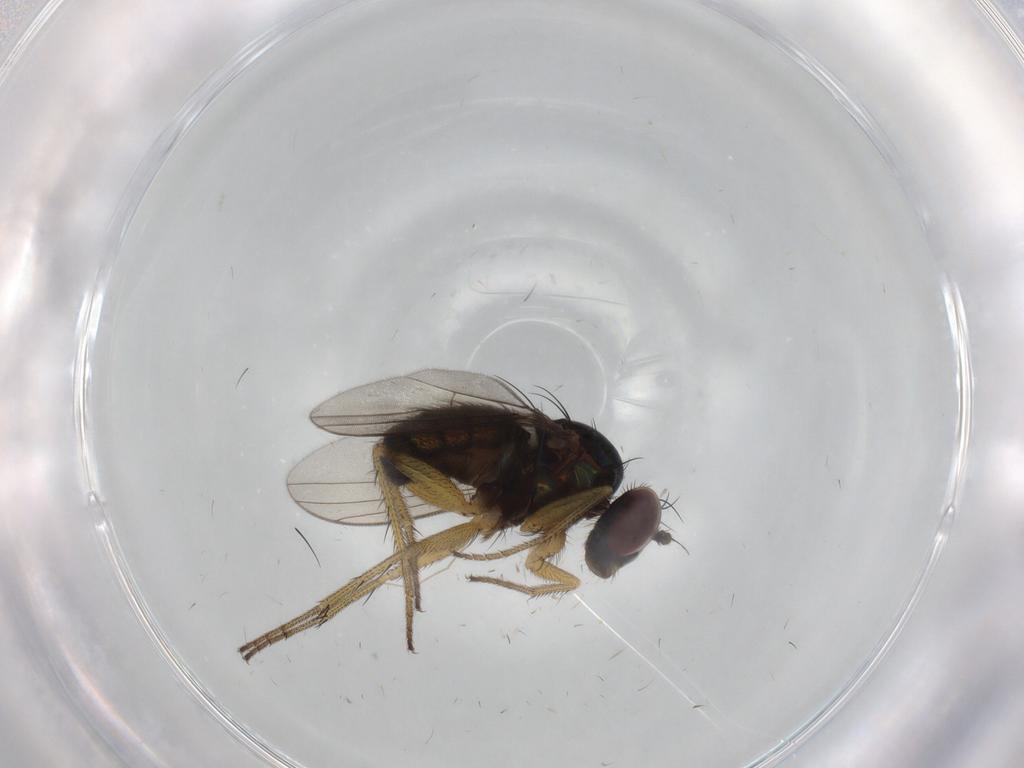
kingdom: Animalia
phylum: Arthropoda
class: Insecta
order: Diptera
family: Dolichopodidae
